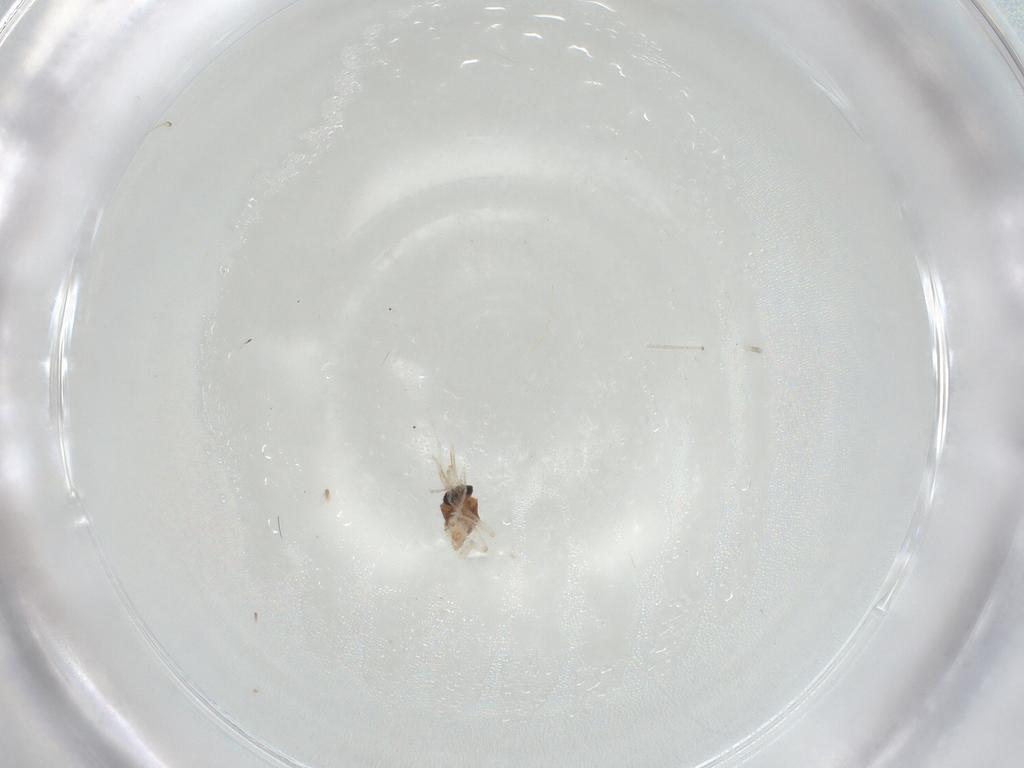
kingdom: Animalia
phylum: Arthropoda
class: Insecta
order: Diptera
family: Ceratopogonidae
